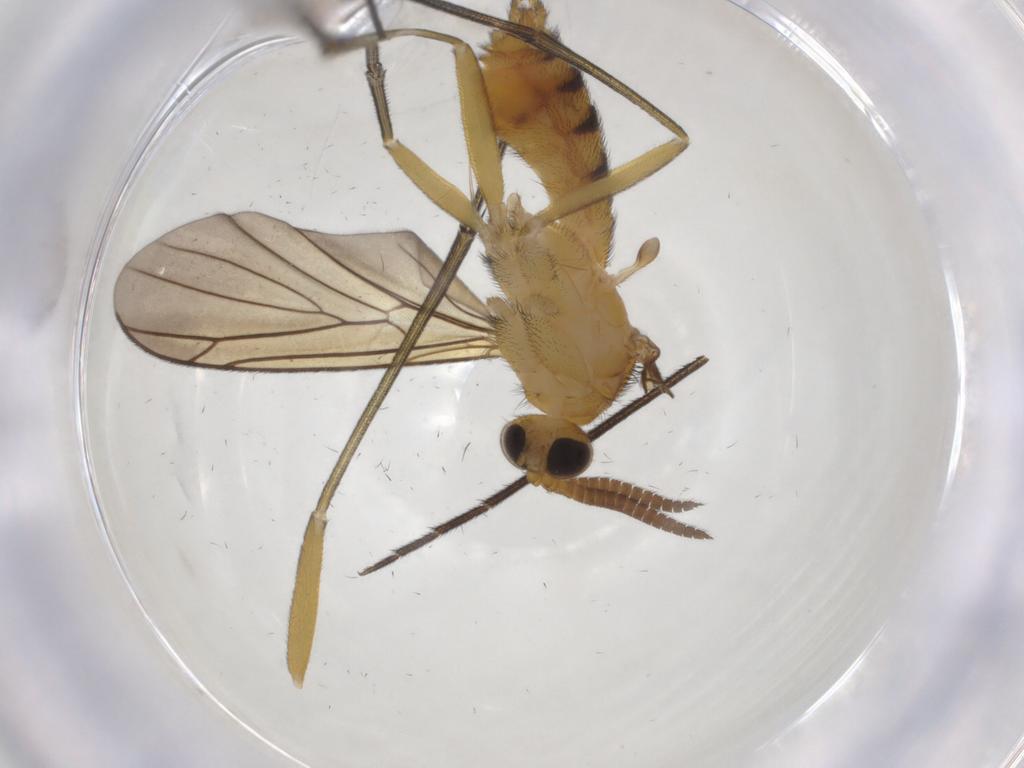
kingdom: Animalia
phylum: Arthropoda
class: Insecta
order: Diptera
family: Keroplatidae
